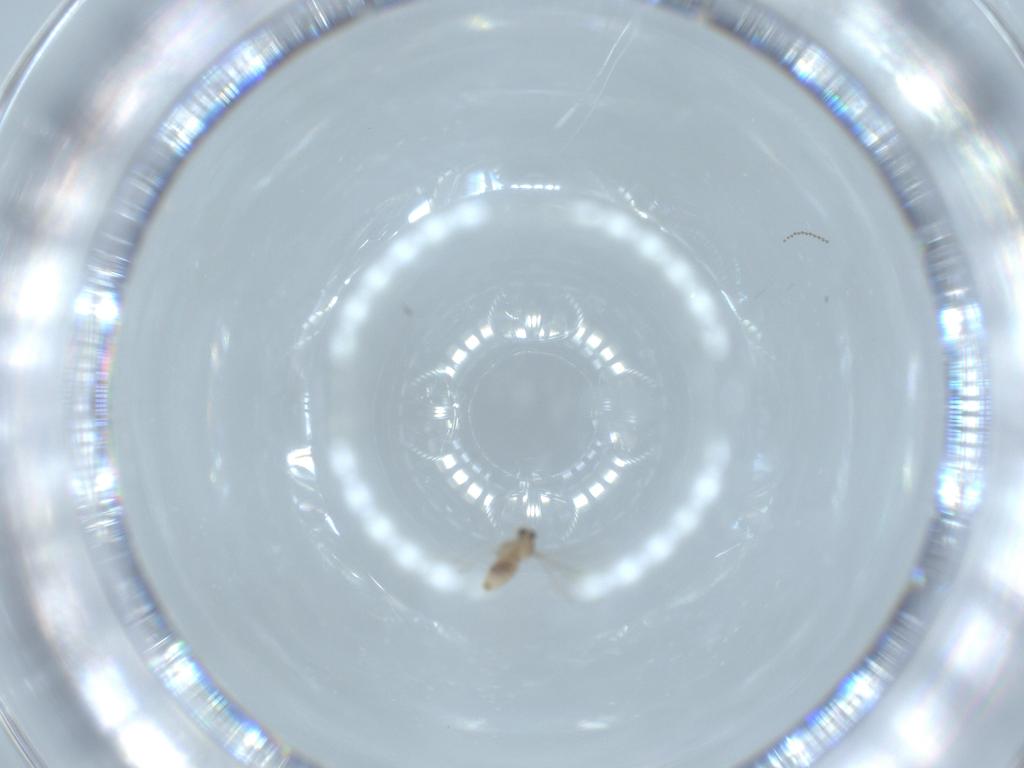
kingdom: Animalia
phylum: Arthropoda
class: Insecta
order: Diptera
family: Cecidomyiidae
